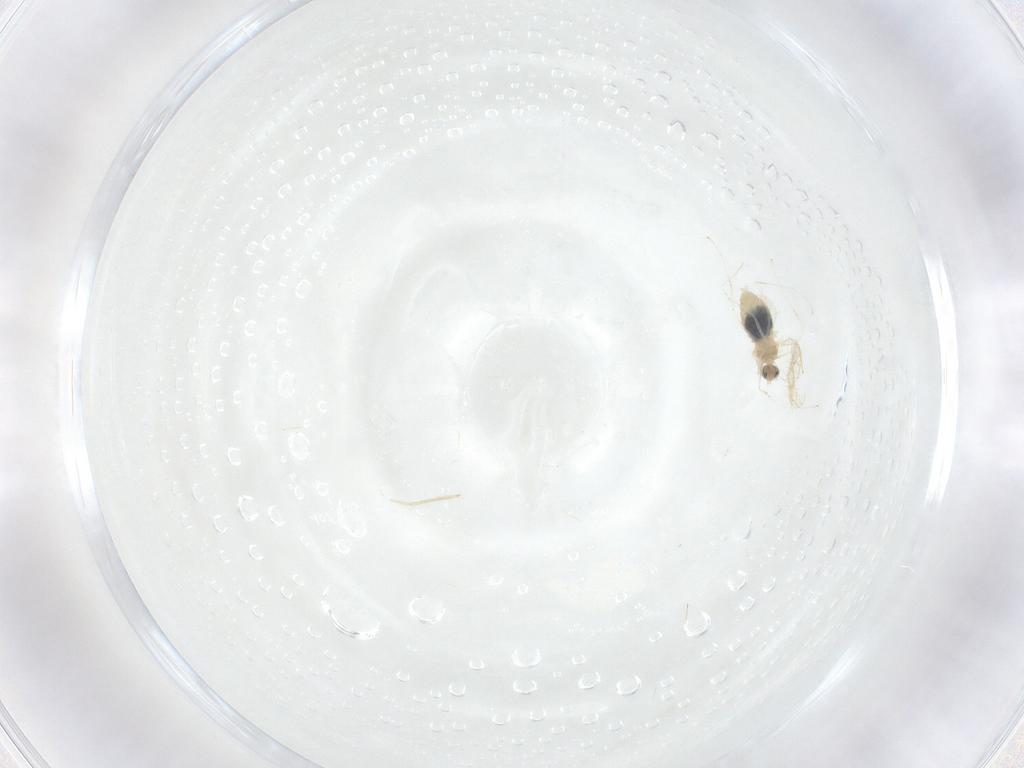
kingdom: Animalia
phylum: Arthropoda
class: Insecta
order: Diptera
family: Cecidomyiidae
